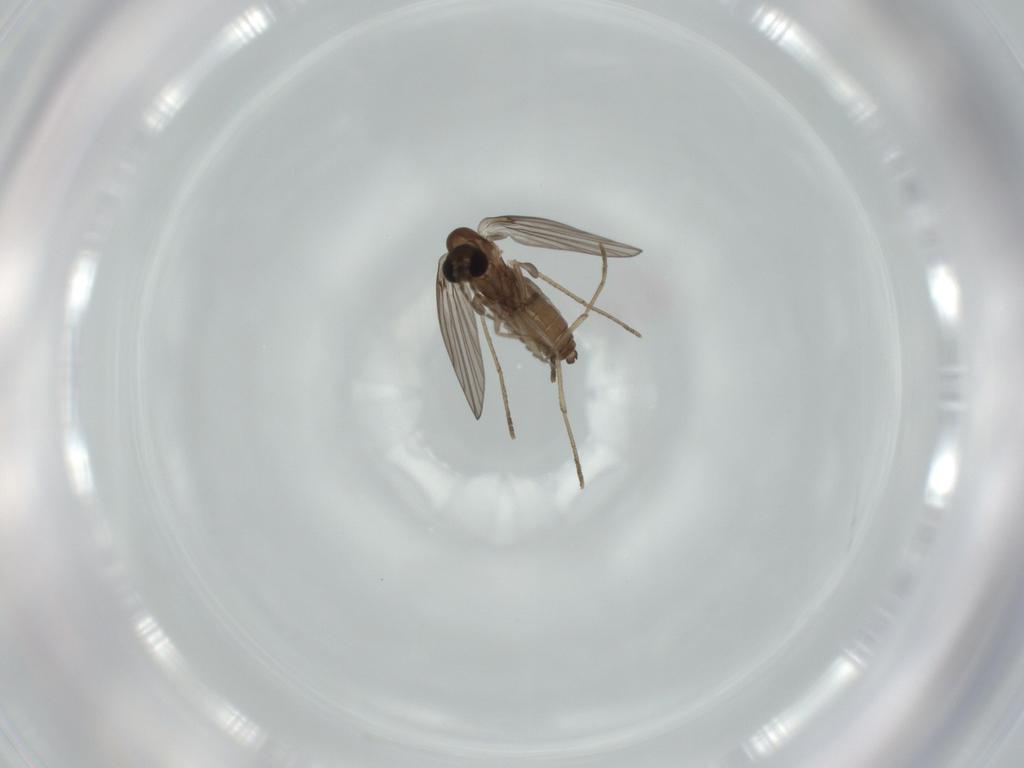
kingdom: Animalia
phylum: Arthropoda
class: Insecta
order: Diptera
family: Psychodidae
